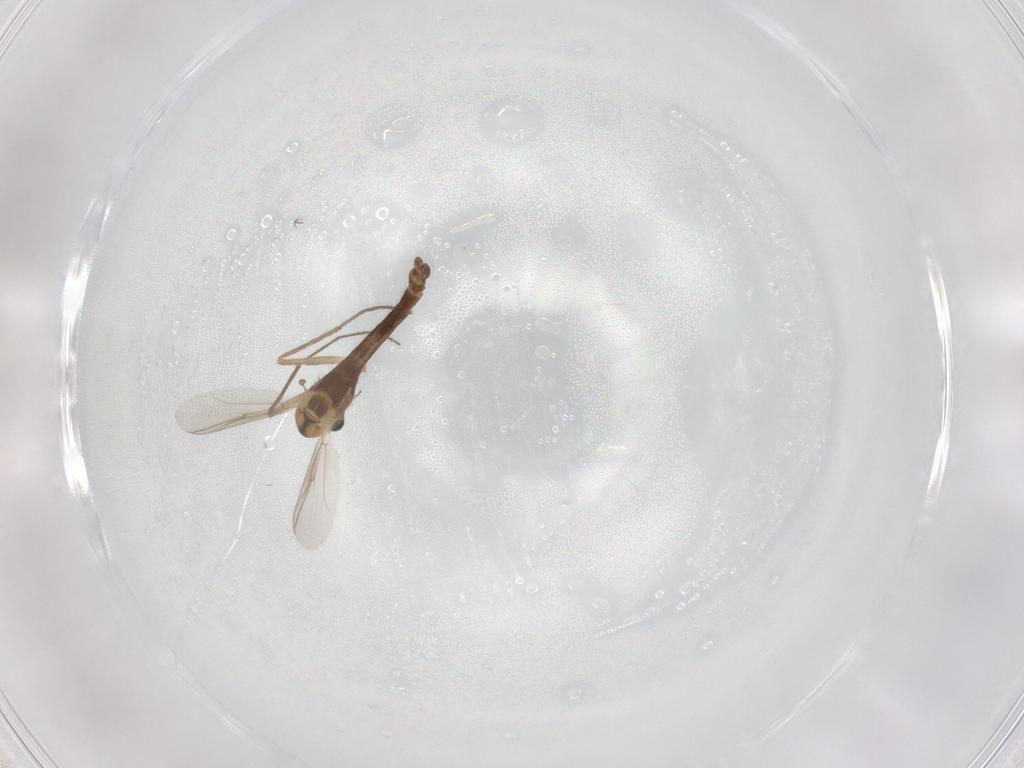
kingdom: Animalia
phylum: Arthropoda
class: Insecta
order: Diptera
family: Chironomidae
